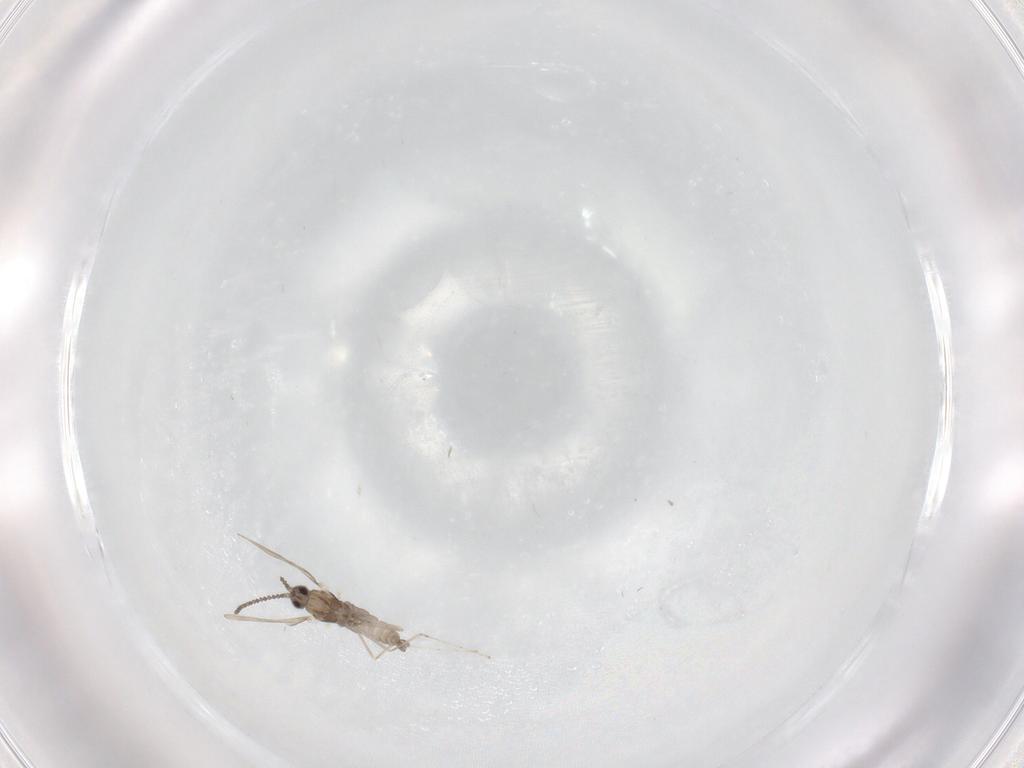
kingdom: Animalia
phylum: Arthropoda
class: Insecta
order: Diptera
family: Cecidomyiidae
